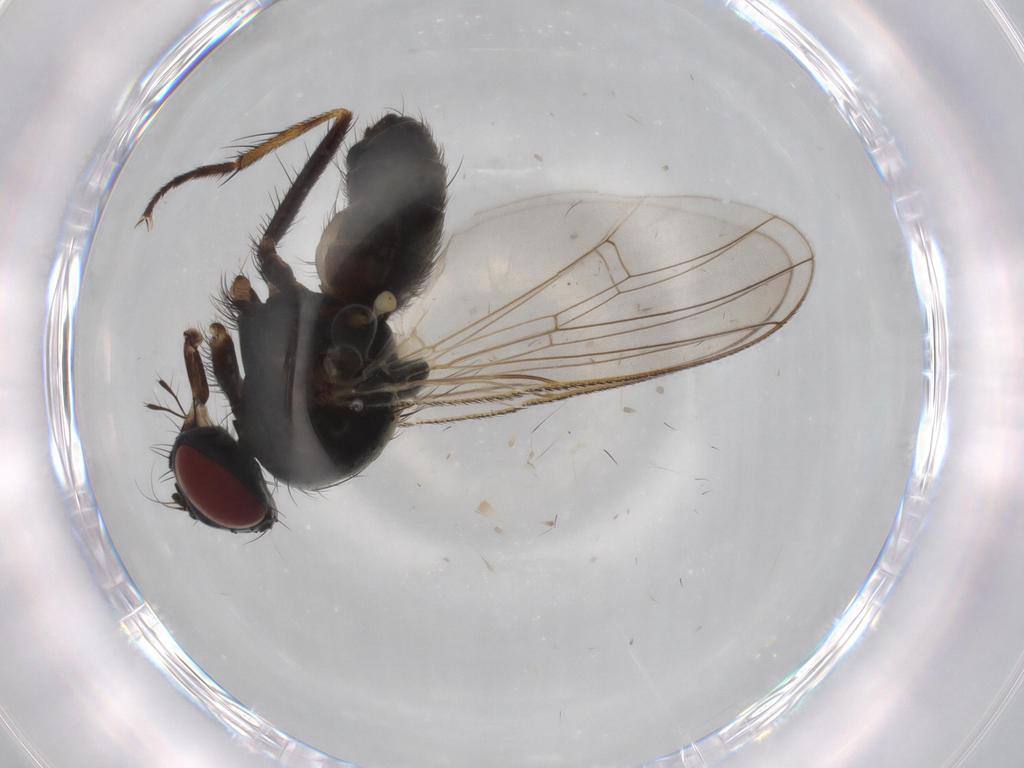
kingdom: Animalia
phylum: Arthropoda
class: Insecta
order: Diptera
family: Muscidae
